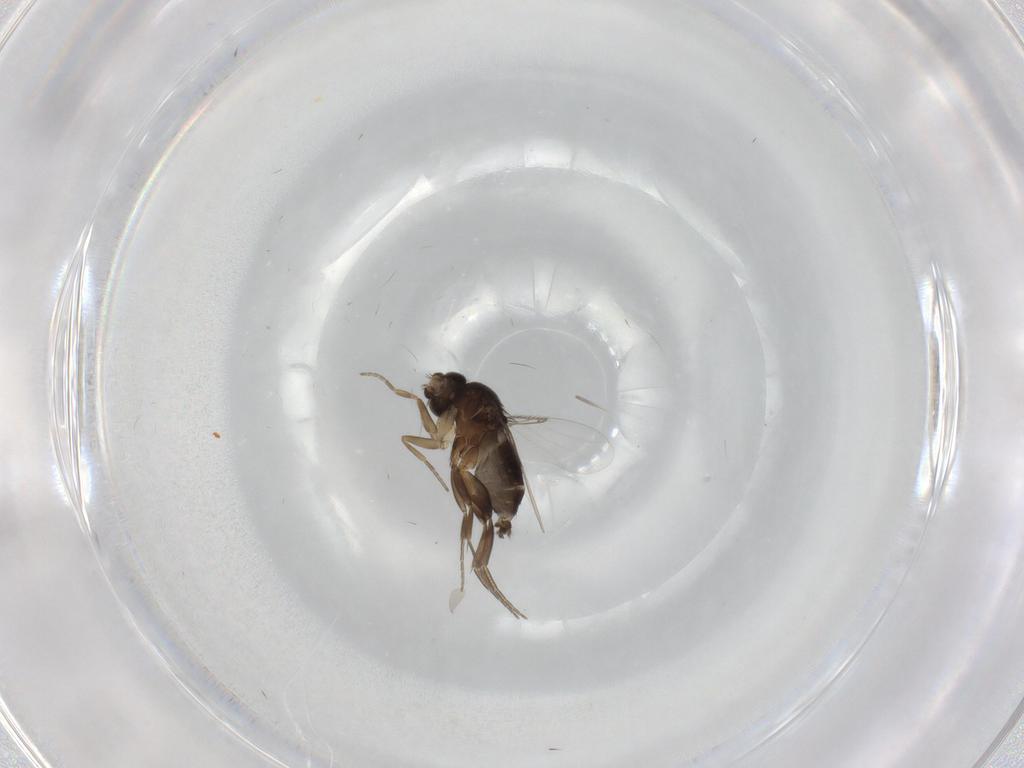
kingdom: Animalia
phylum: Arthropoda
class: Insecta
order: Diptera
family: Phoridae
